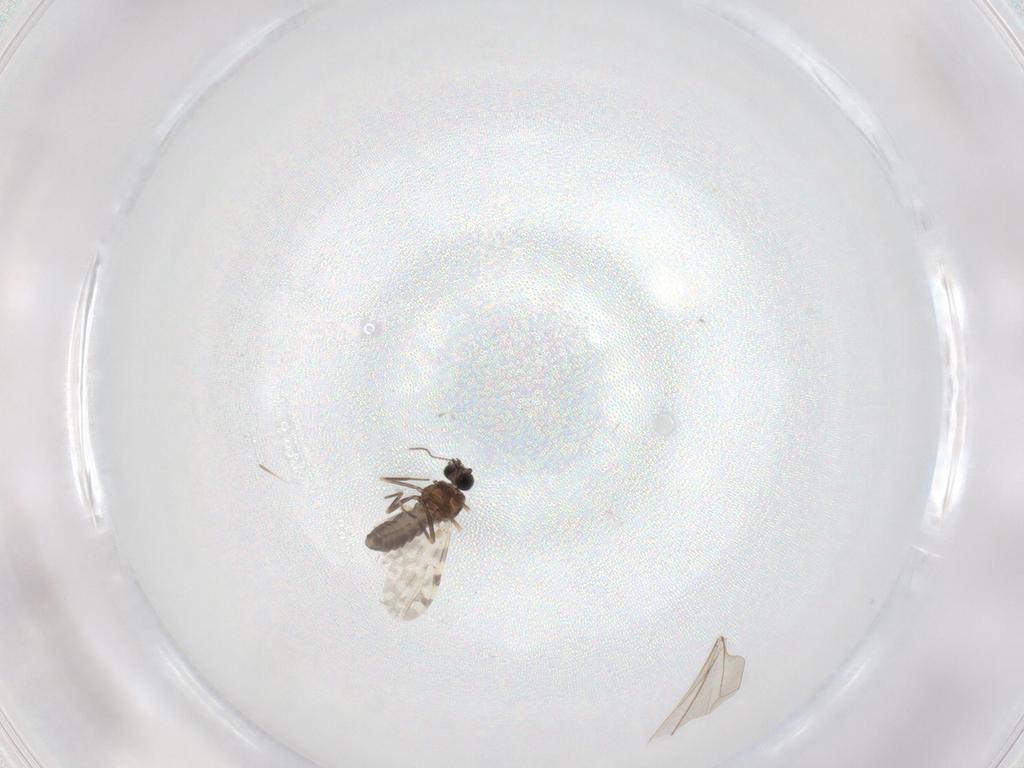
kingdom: Animalia
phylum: Arthropoda
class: Insecta
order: Diptera
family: Ceratopogonidae
